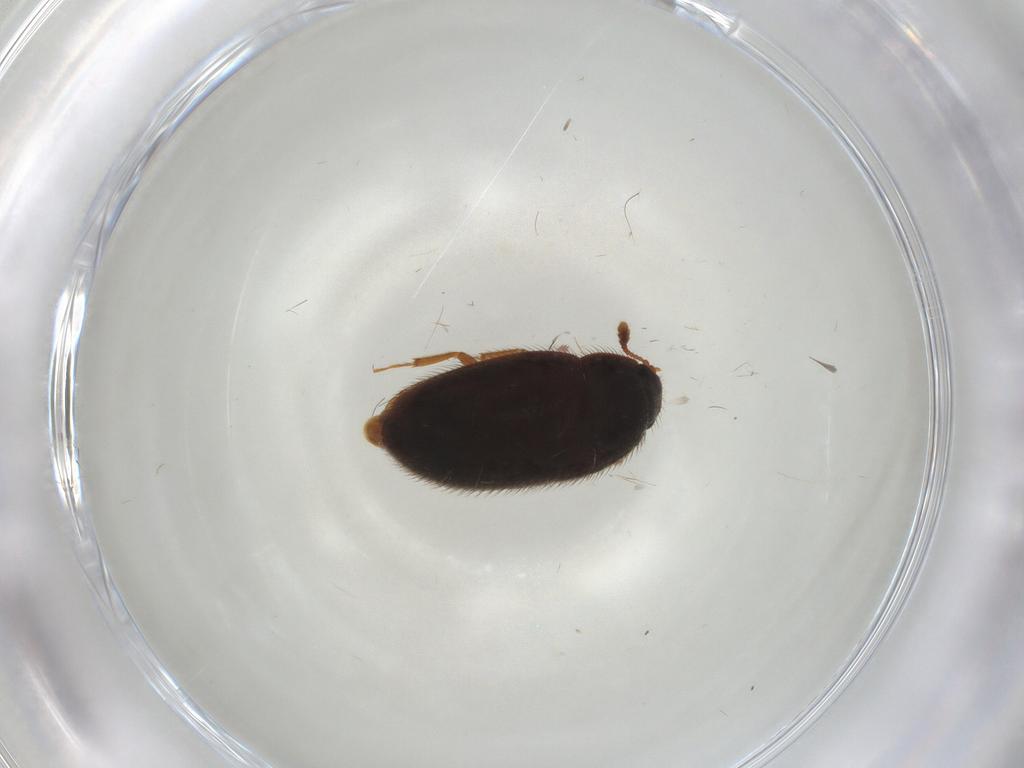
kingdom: Animalia
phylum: Arthropoda
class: Insecta
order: Coleoptera
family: Biphyllidae
